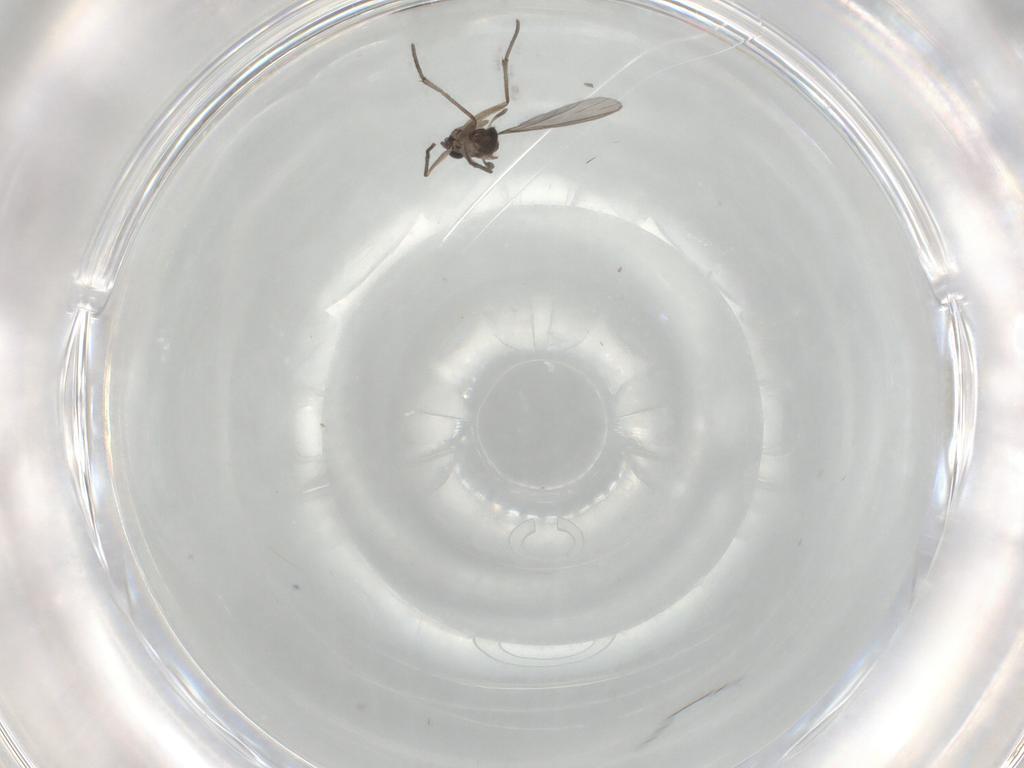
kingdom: Animalia
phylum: Arthropoda
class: Insecta
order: Diptera
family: Sciaridae
